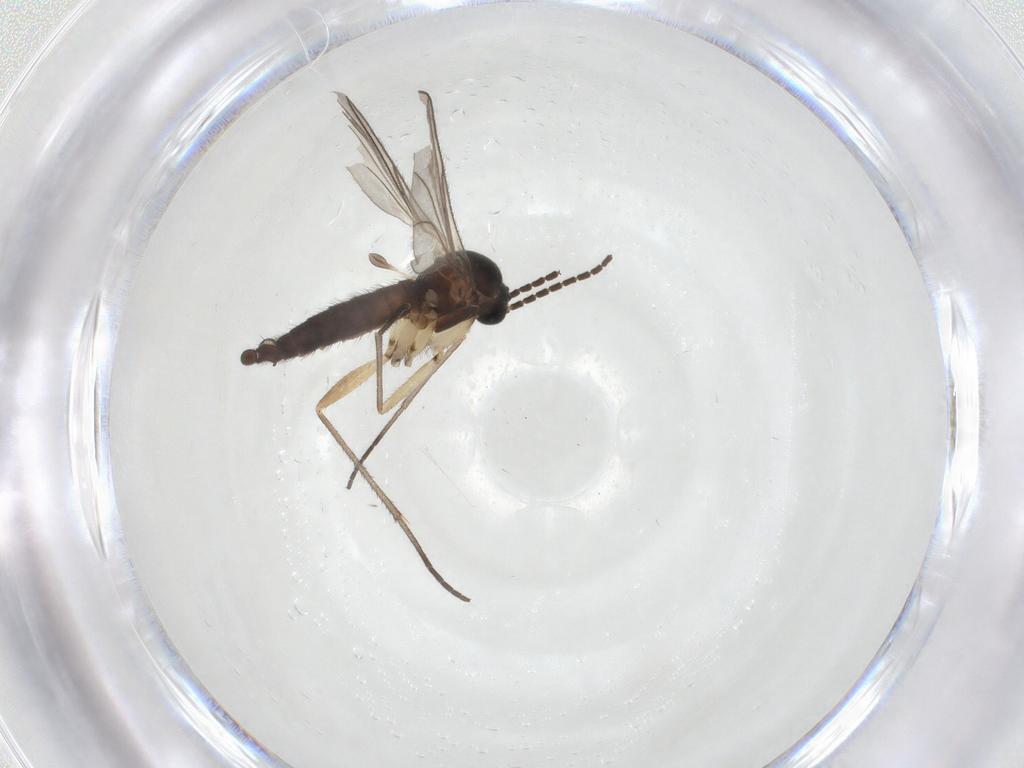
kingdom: Animalia
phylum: Arthropoda
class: Insecta
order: Diptera
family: Sciaridae
